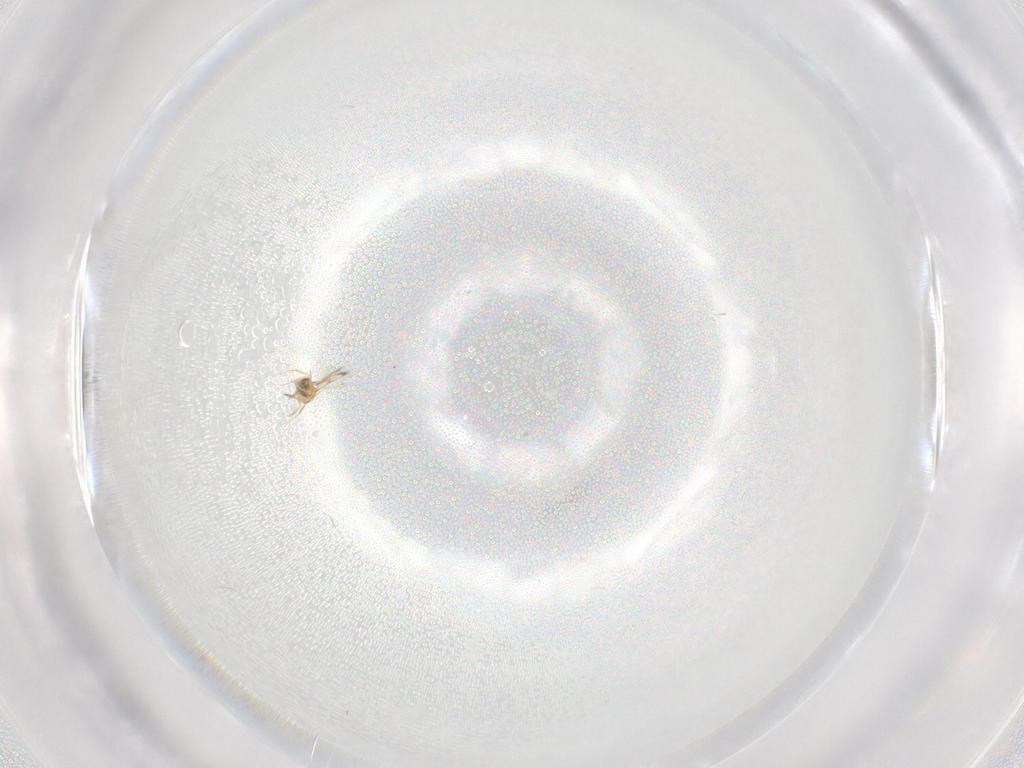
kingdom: Animalia
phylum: Arthropoda
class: Insecta
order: Hymenoptera
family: Trichogrammatidae
